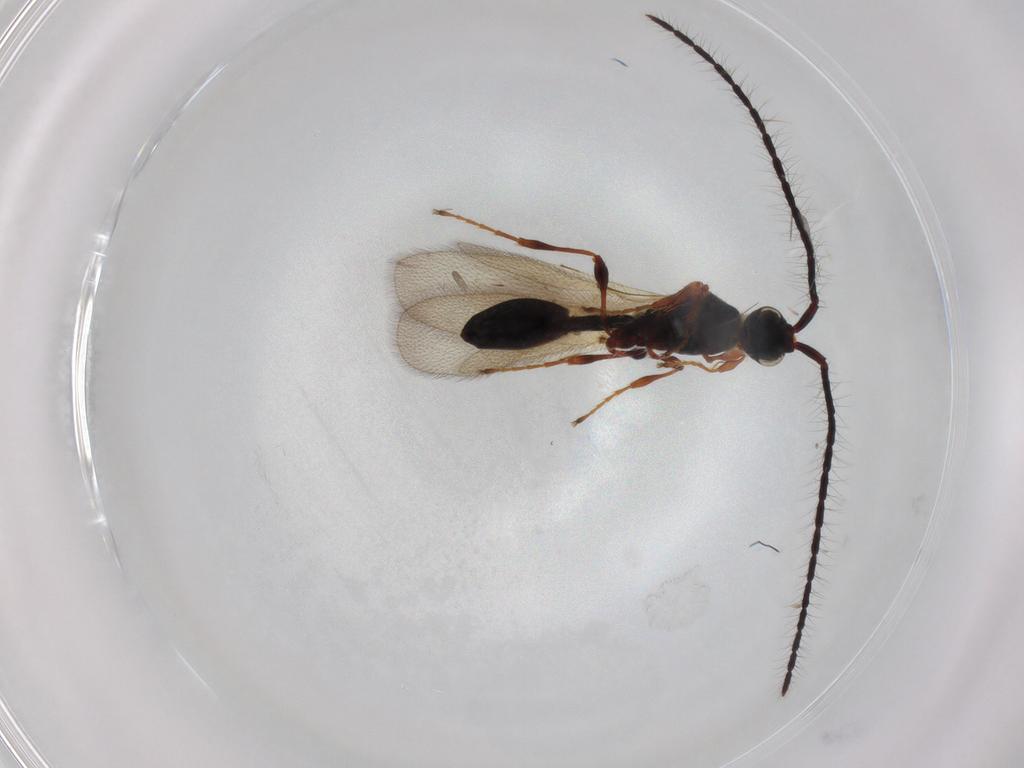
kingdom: Animalia
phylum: Arthropoda
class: Insecta
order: Hymenoptera
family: Diapriidae
